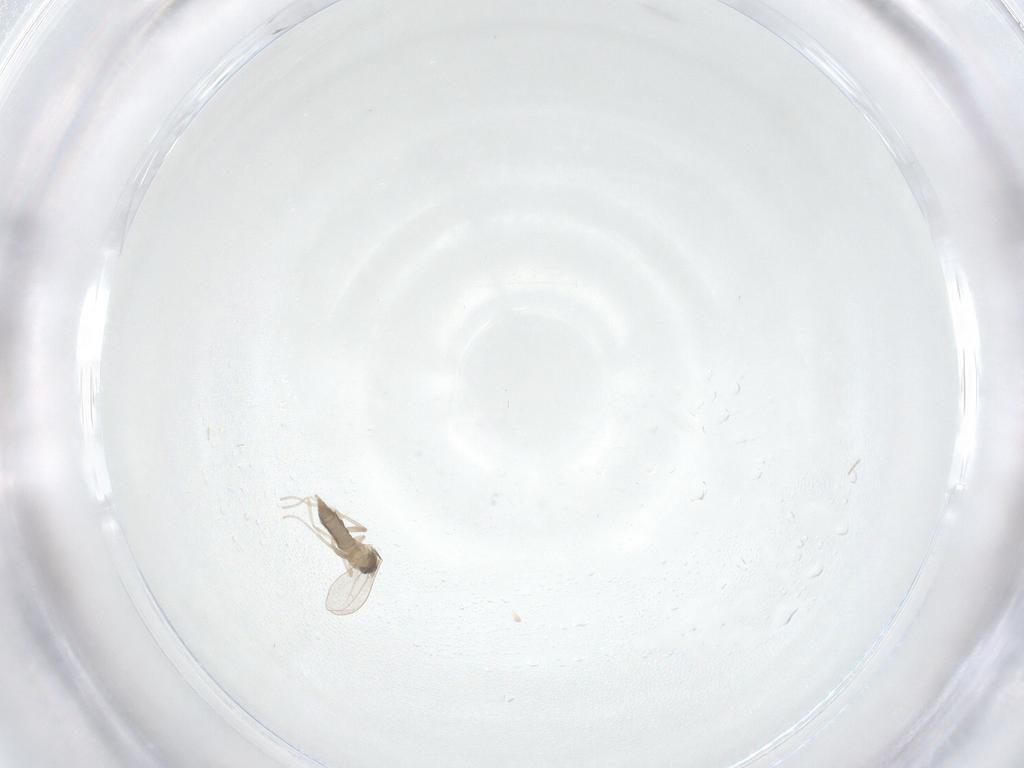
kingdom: Animalia
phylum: Arthropoda
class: Insecta
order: Diptera
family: Cecidomyiidae
